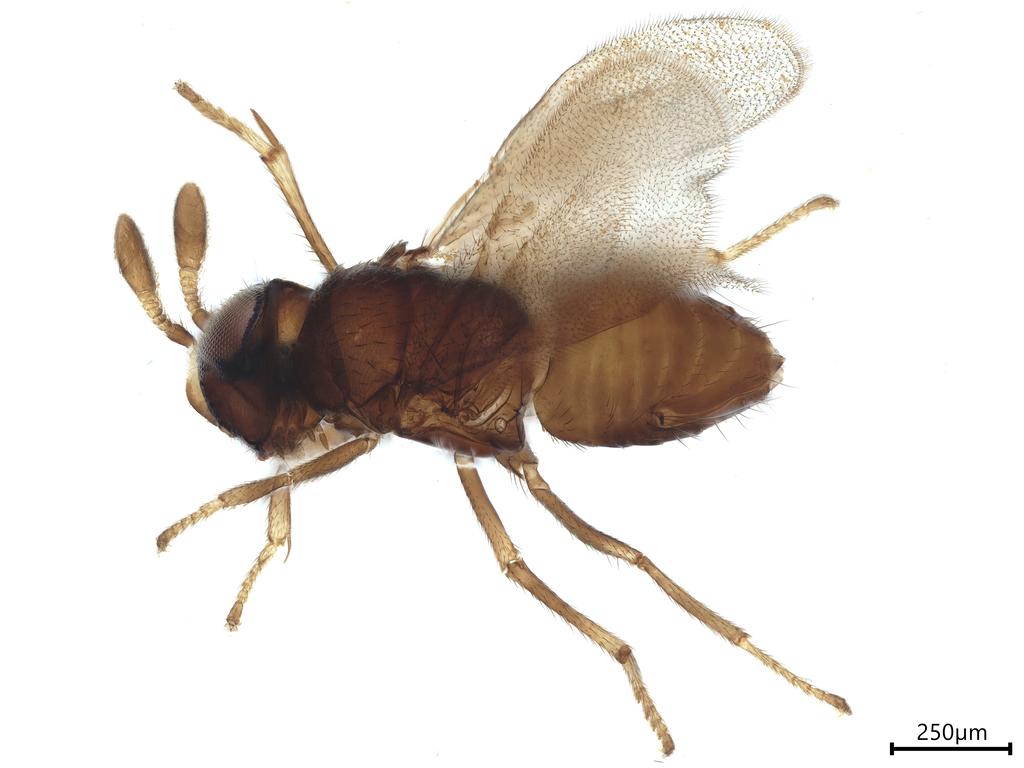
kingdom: Animalia
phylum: Arthropoda
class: Insecta
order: Hymenoptera
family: Encyrtidae
